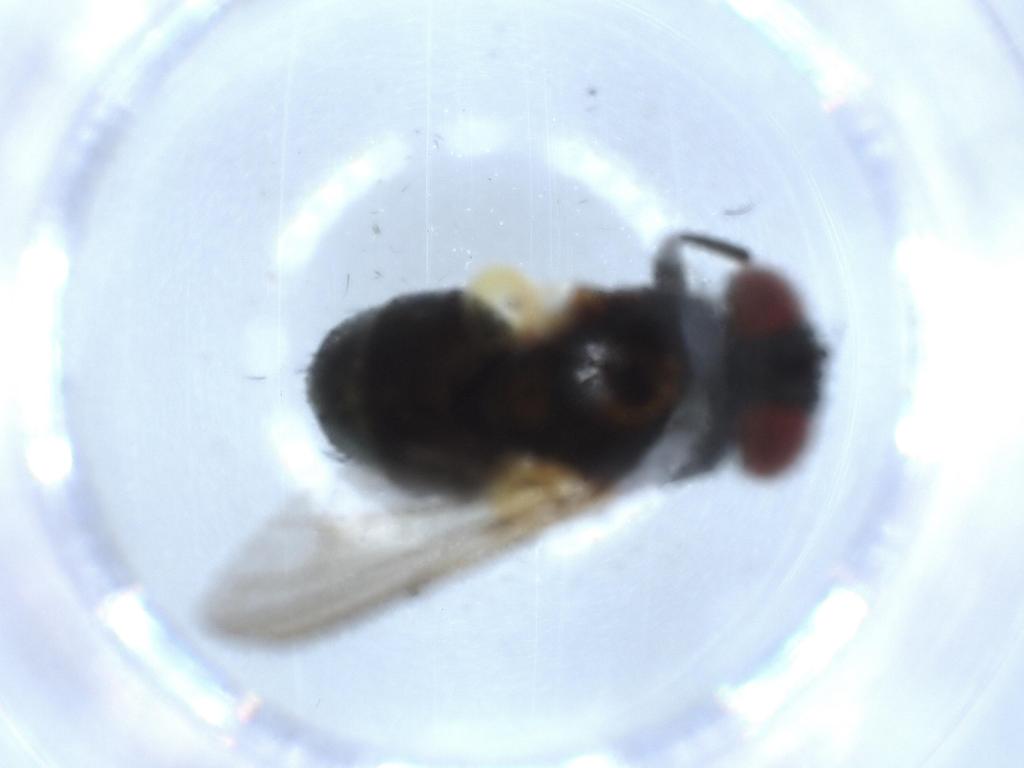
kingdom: Animalia
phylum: Arthropoda
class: Insecta
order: Diptera
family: Tachinidae
